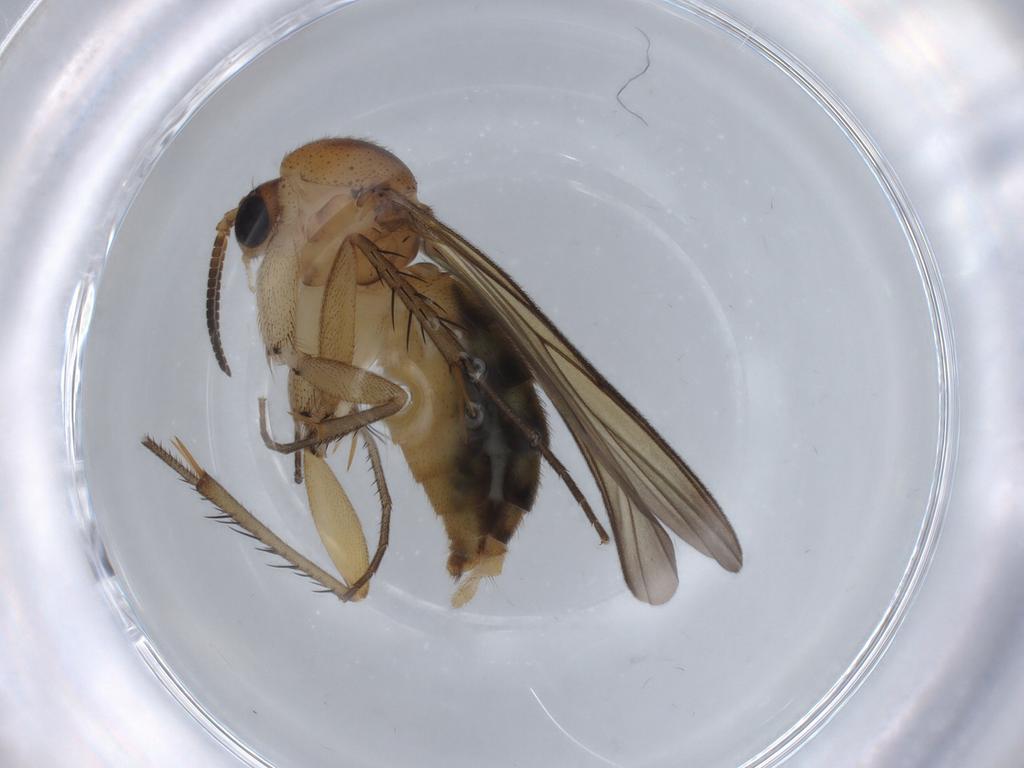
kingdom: Animalia
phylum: Arthropoda
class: Insecta
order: Diptera
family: Mycetophilidae
